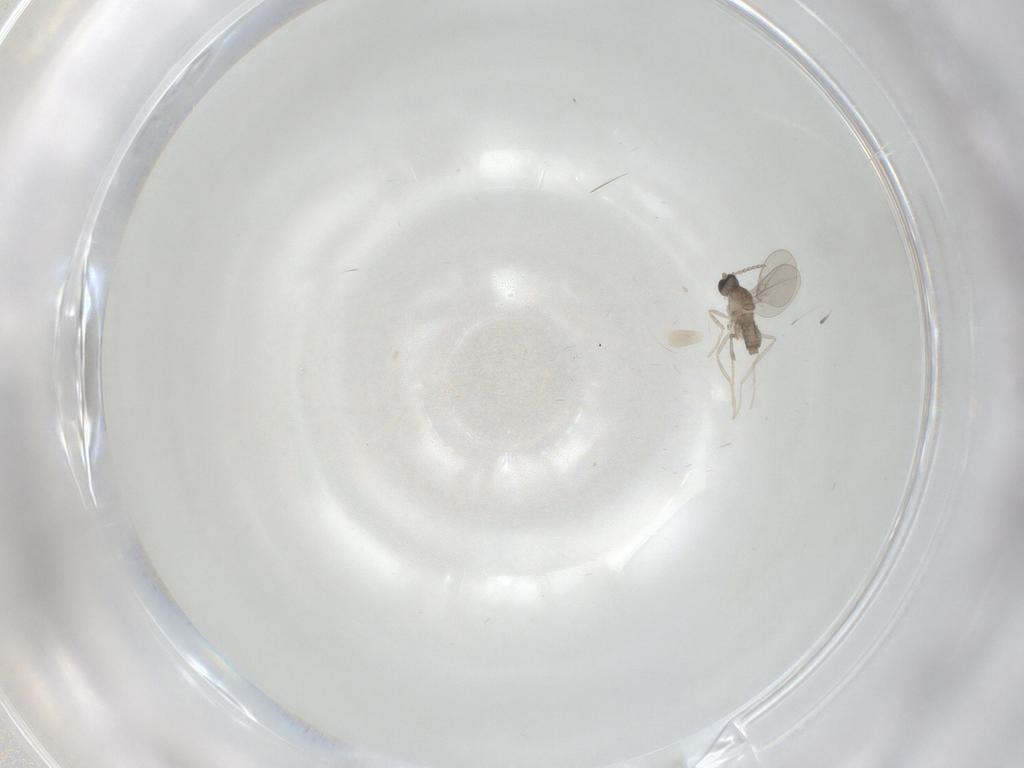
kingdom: Animalia
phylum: Arthropoda
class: Insecta
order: Diptera
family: Cecidomyiidae
